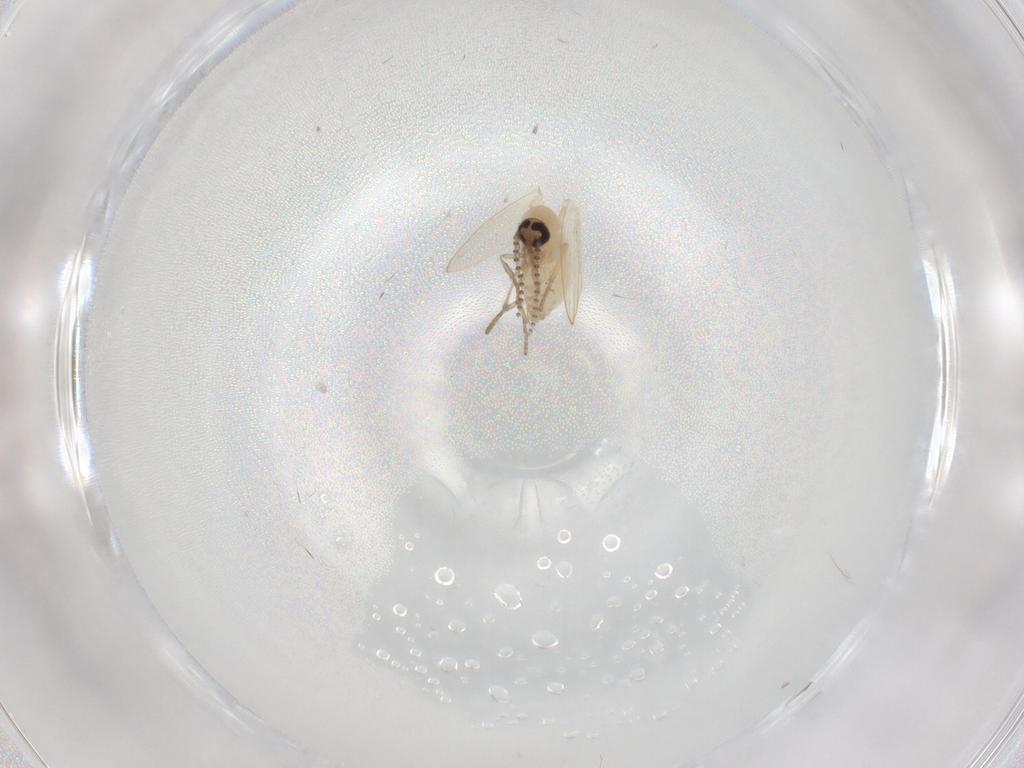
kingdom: Animalia
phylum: Arthropoda
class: Insecta
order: Diptera
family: Psychodidae
